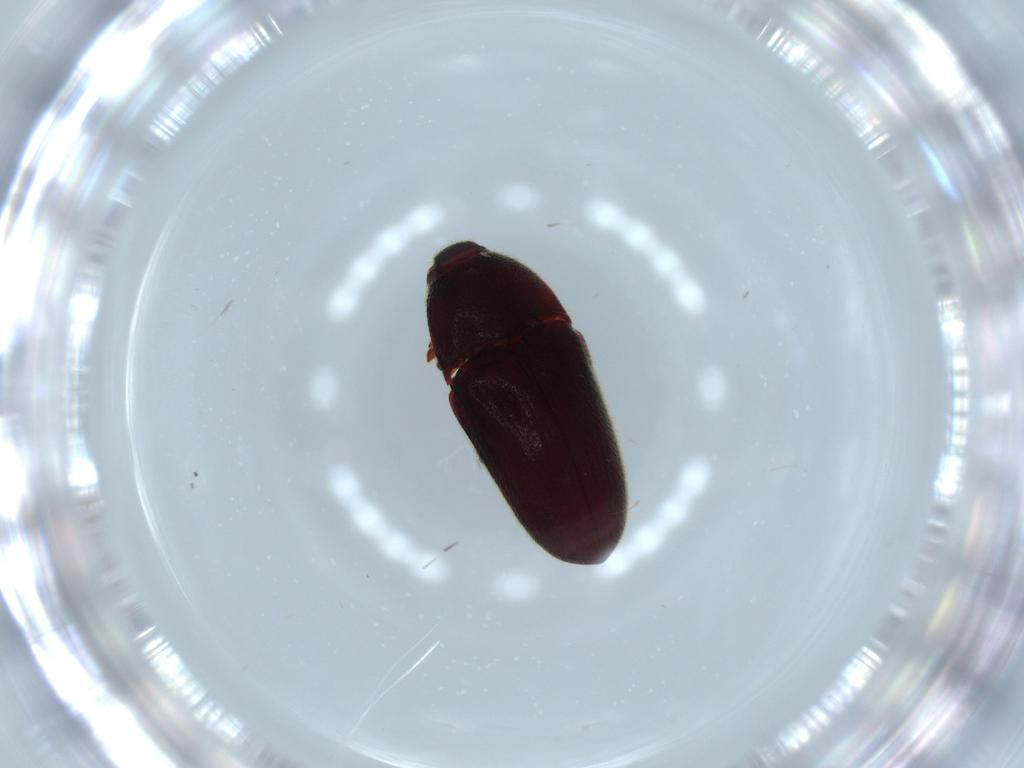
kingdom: Animalia
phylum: Arthropoda
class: Insecta
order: Coleoptera
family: Throscidae
